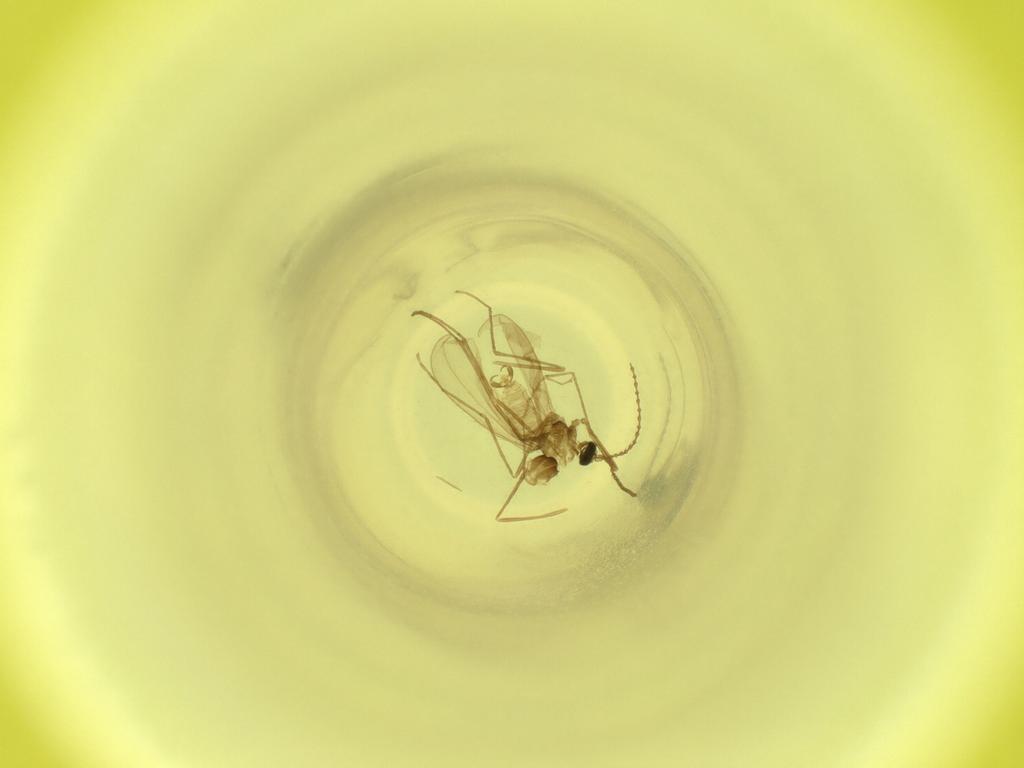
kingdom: Animalia
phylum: Arthropoda
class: Insecta
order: Diptera
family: Cecidomyiidae
